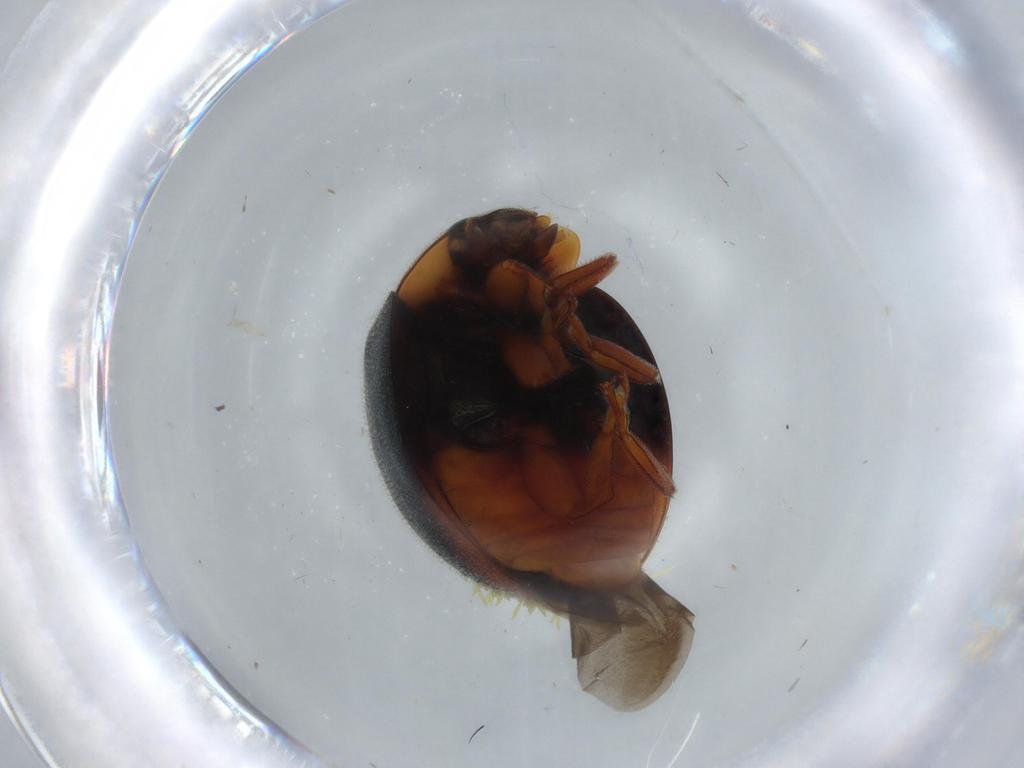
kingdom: Animalia
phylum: Arthropoda
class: Insecta
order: Coleoptera
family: Coccinellidae
